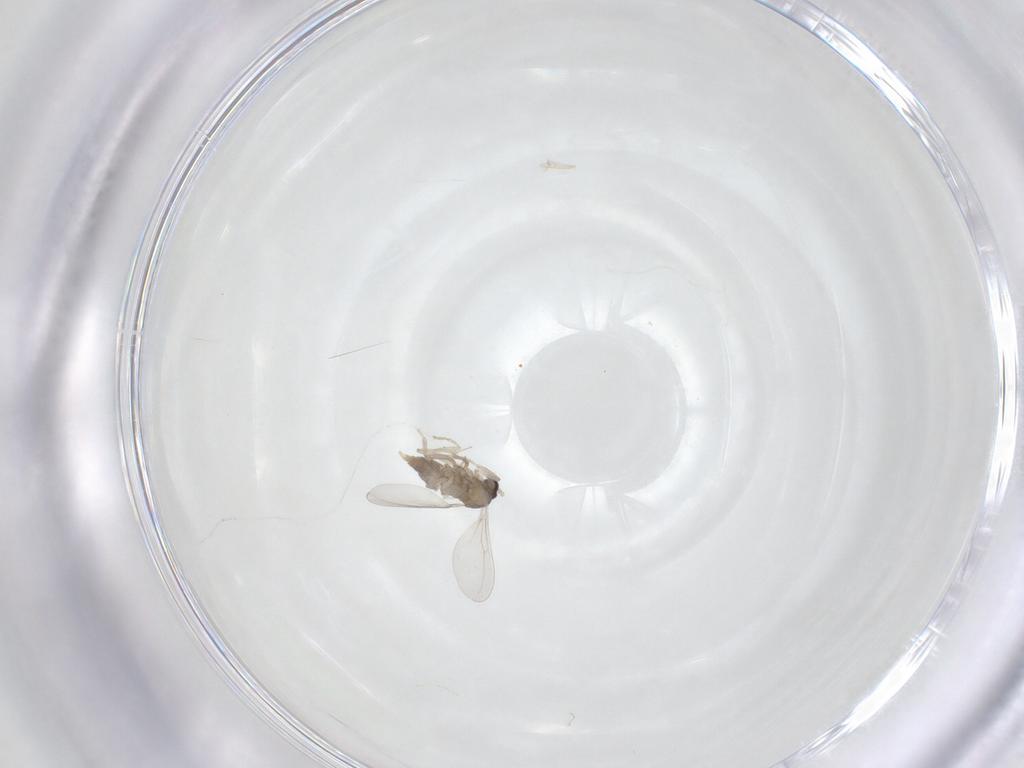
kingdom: Animalia
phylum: Arthropoda
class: Insecta
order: Diptera
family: Cecidomyiidae
